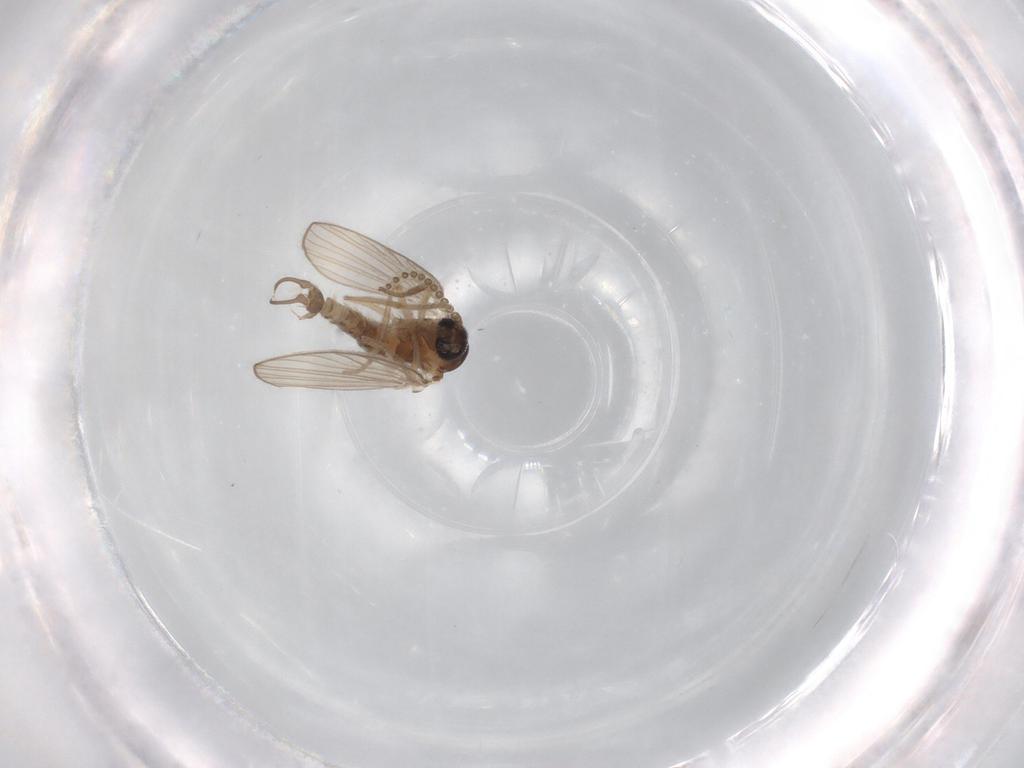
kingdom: Animalia
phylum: Arthropoda
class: Insecta
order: Diptera
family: Psychodidae
